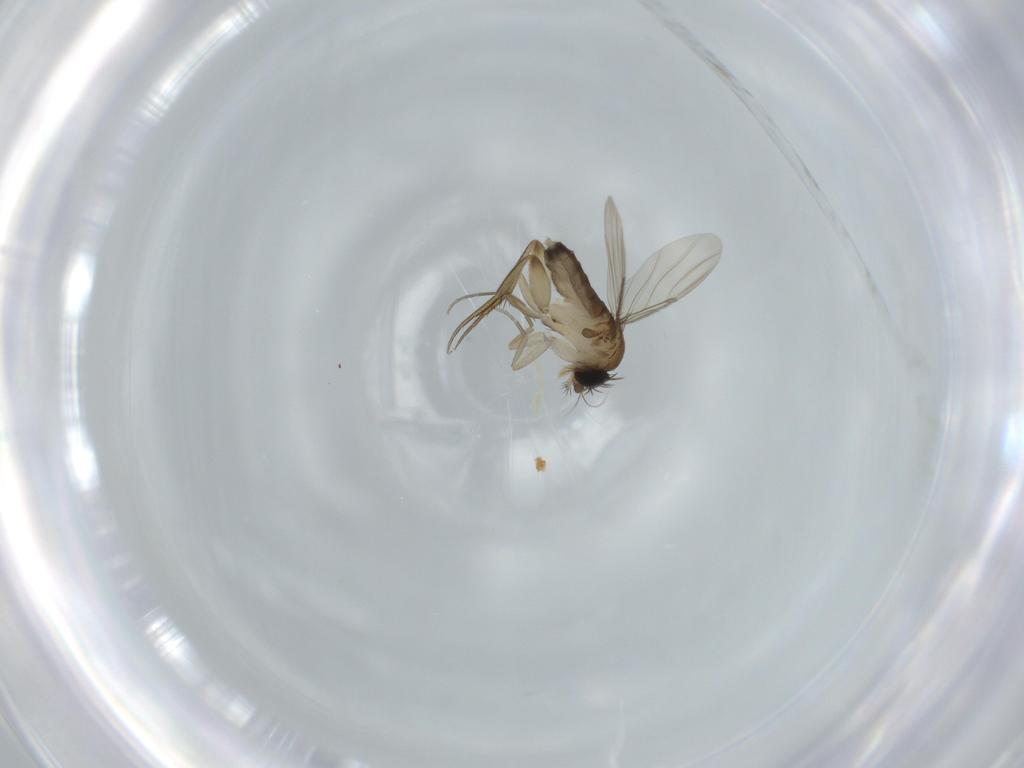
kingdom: Animalia
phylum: Arthropoda
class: Insecta
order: Diptera
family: Phoridae
